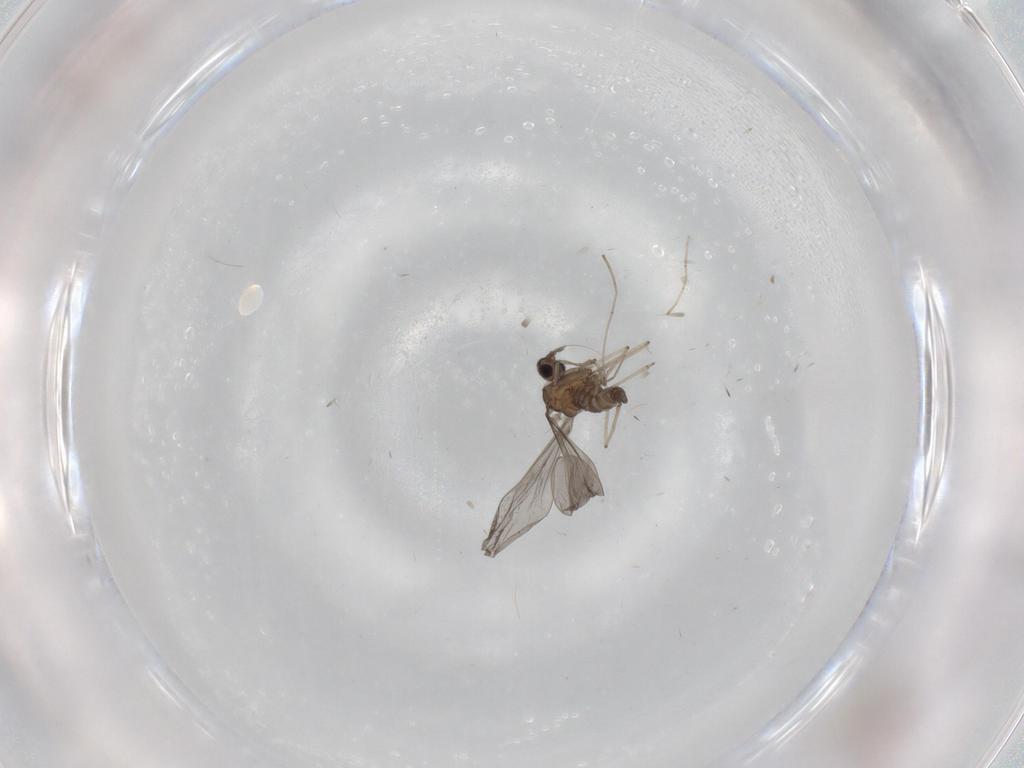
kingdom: Animalia
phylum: Arthropoda
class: Insecta
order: Diptera
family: Cecidomyiidae
